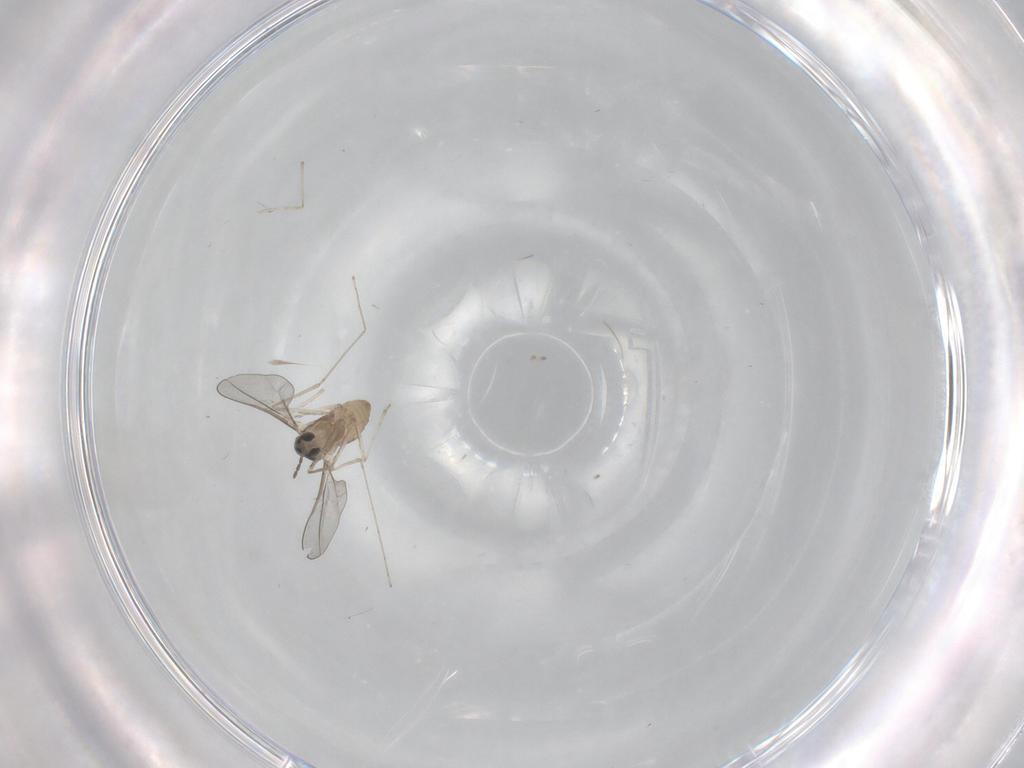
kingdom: Animalia
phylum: Arthropoda
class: Insecta
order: Diptera
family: Cecidomyiidae
